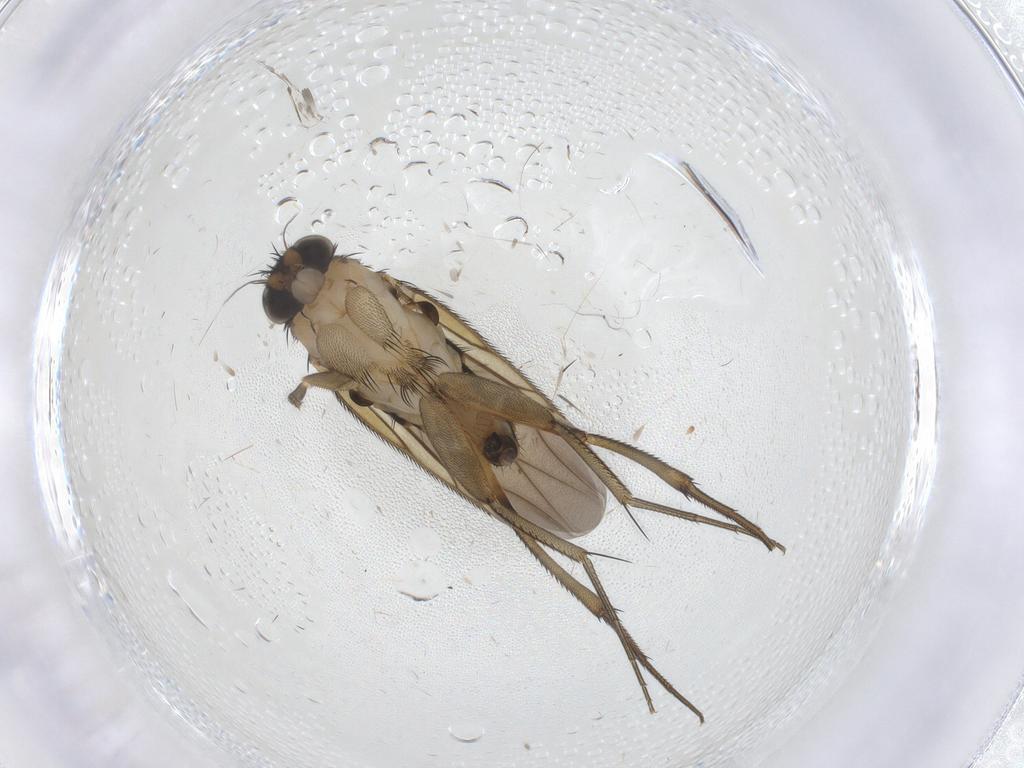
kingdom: Animalia
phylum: Arthropoda
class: Insecta
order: Diptera
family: Phoridae
